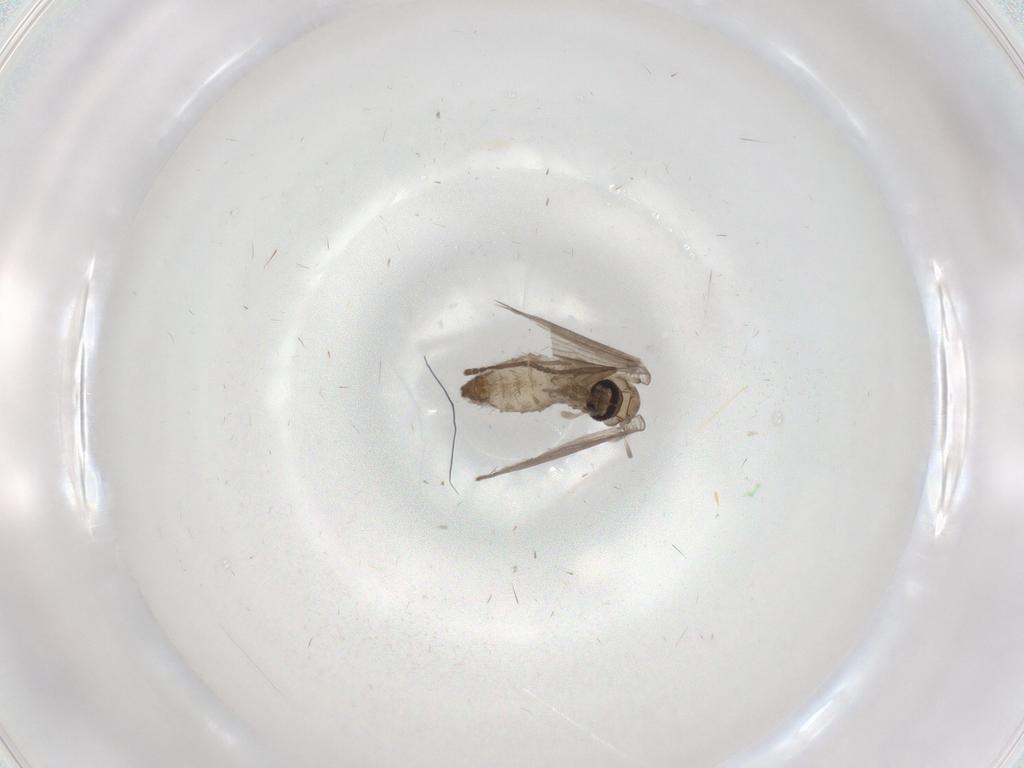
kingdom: Animalia
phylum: Arthropoda
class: Insecta
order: Diptera
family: Psychodidae
